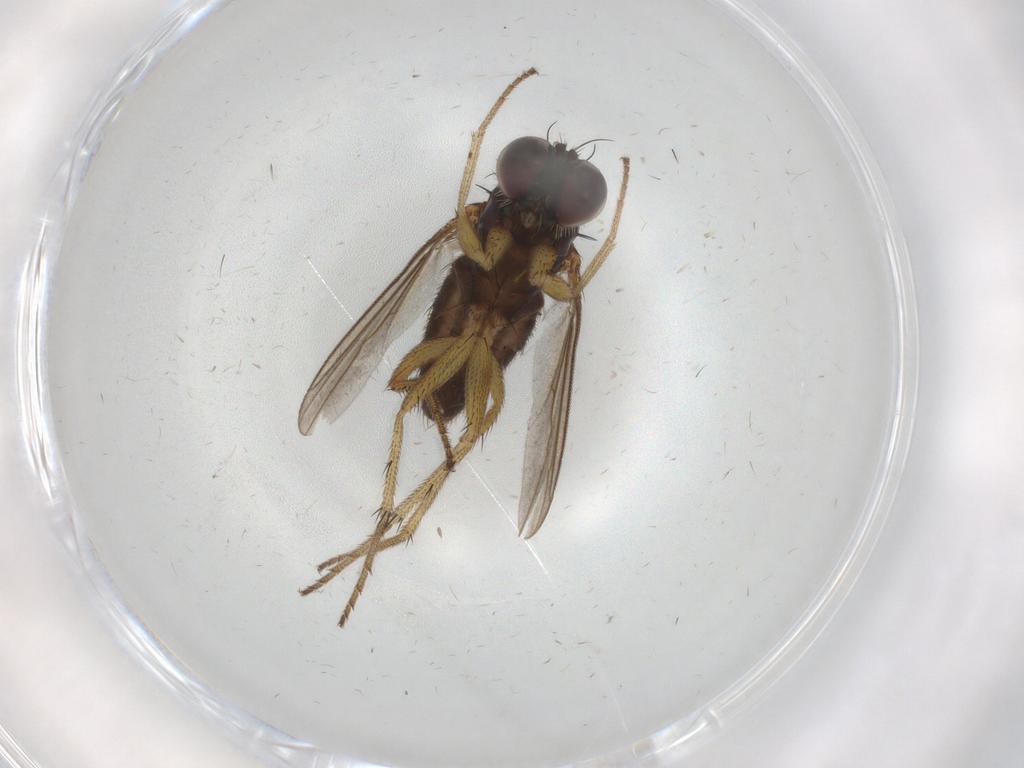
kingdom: Animalia
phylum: Arthropoda
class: Insecta
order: Diptera
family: Dolichopodidae
